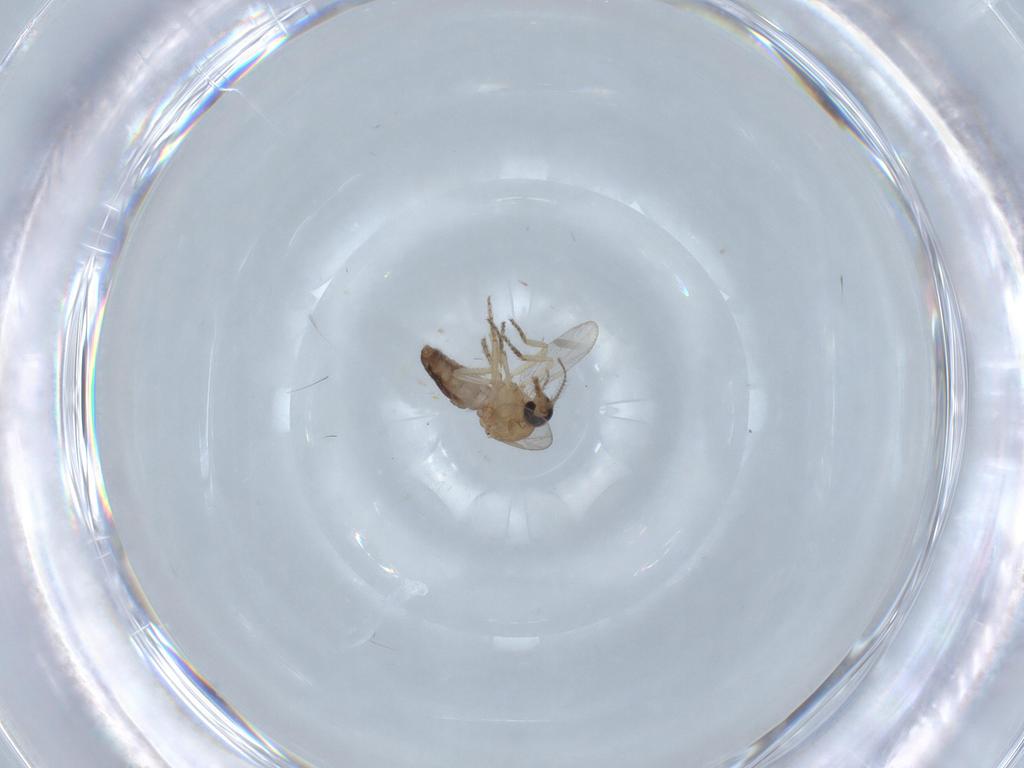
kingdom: Animalia
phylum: Arthropoda
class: Insecta
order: Diptera
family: Ceratopogonidae
